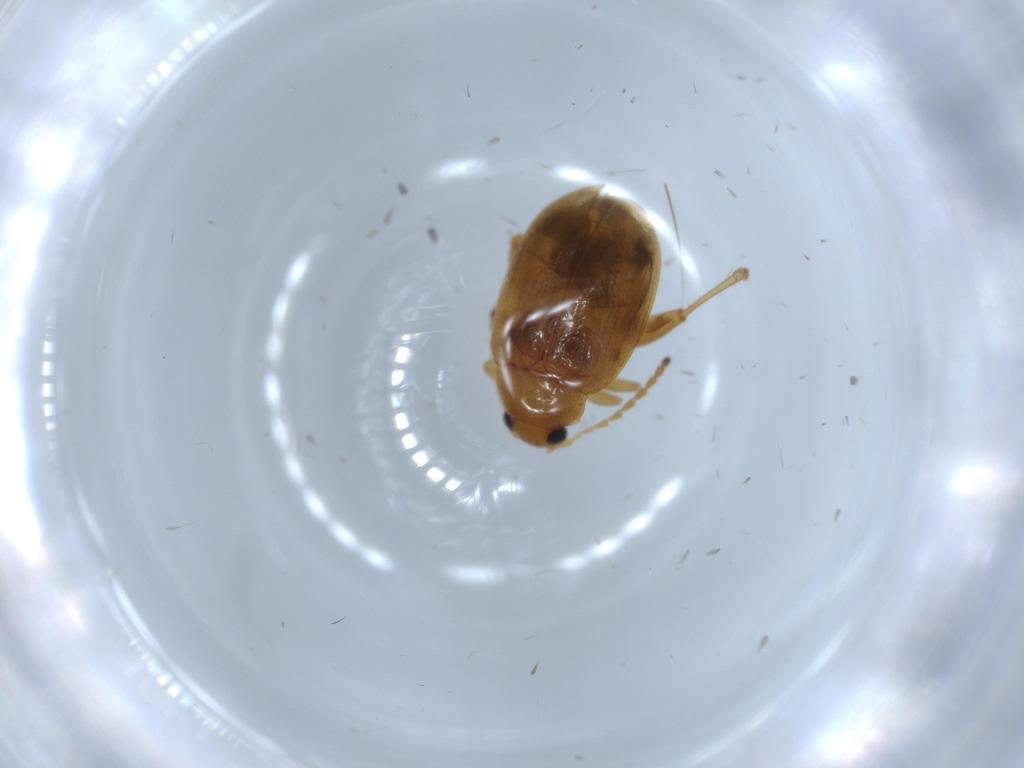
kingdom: Animalia
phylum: Arthropoda
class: Insecta
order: Coleoptera
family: Chrysomelidae
